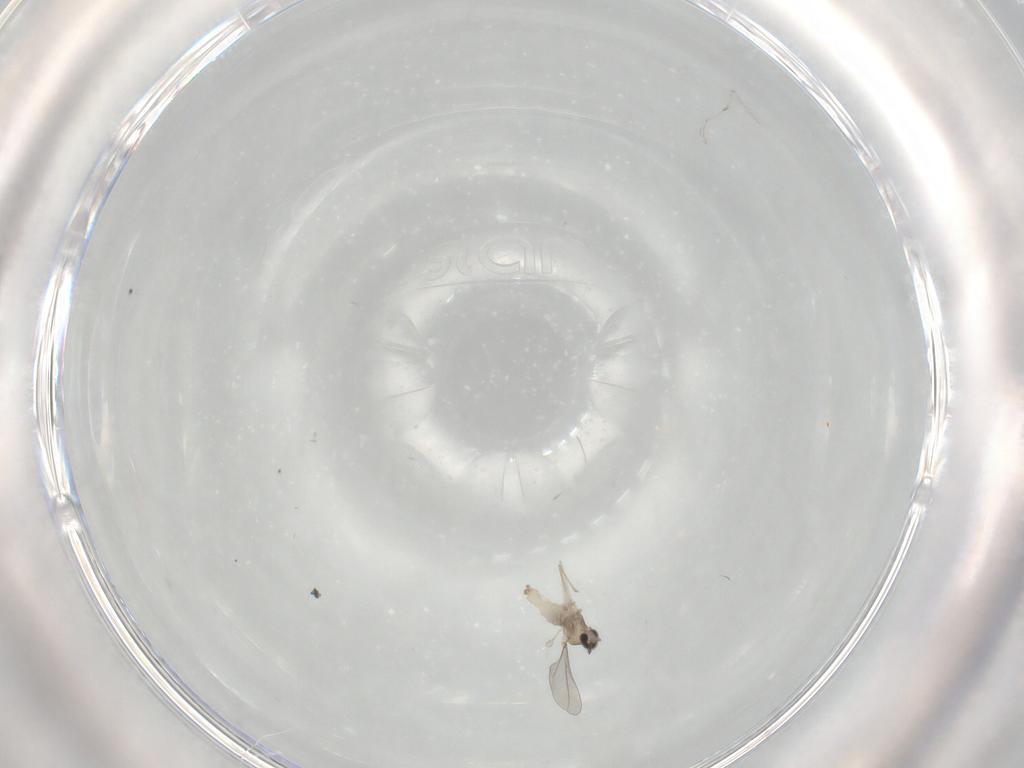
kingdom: Animalia
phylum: Arthropoda
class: Insecta
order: Diptera
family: Cecidomyiidae
